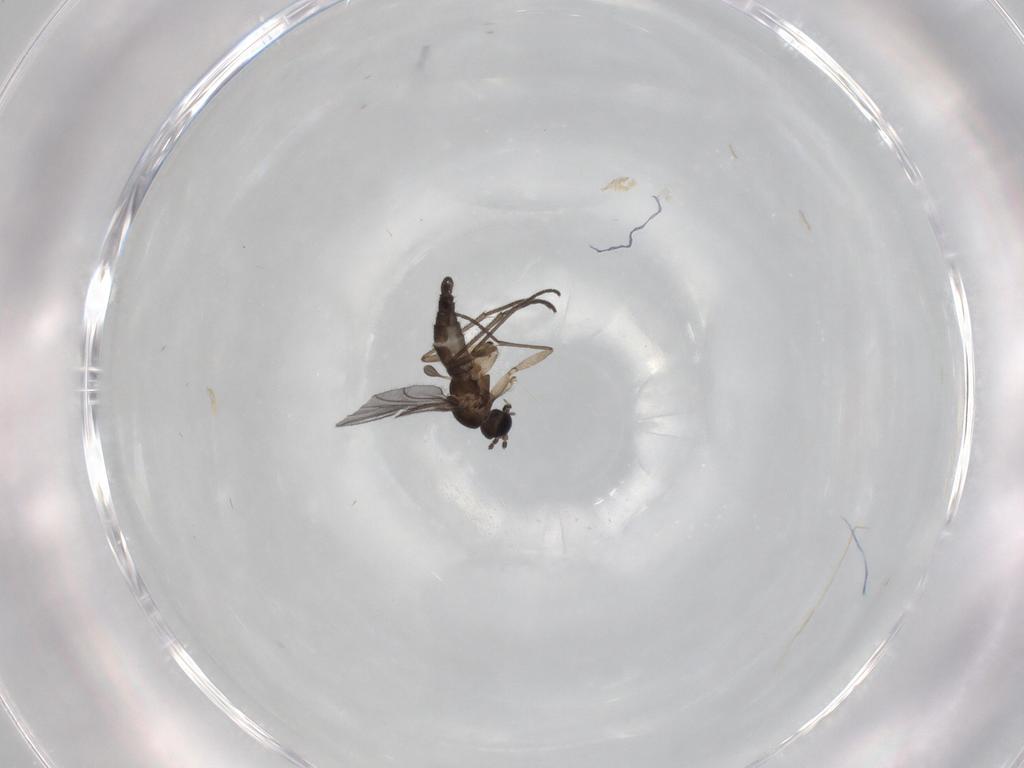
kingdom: Animalia
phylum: Arthropoda
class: Insecta
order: Diptera
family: Sciaridae
